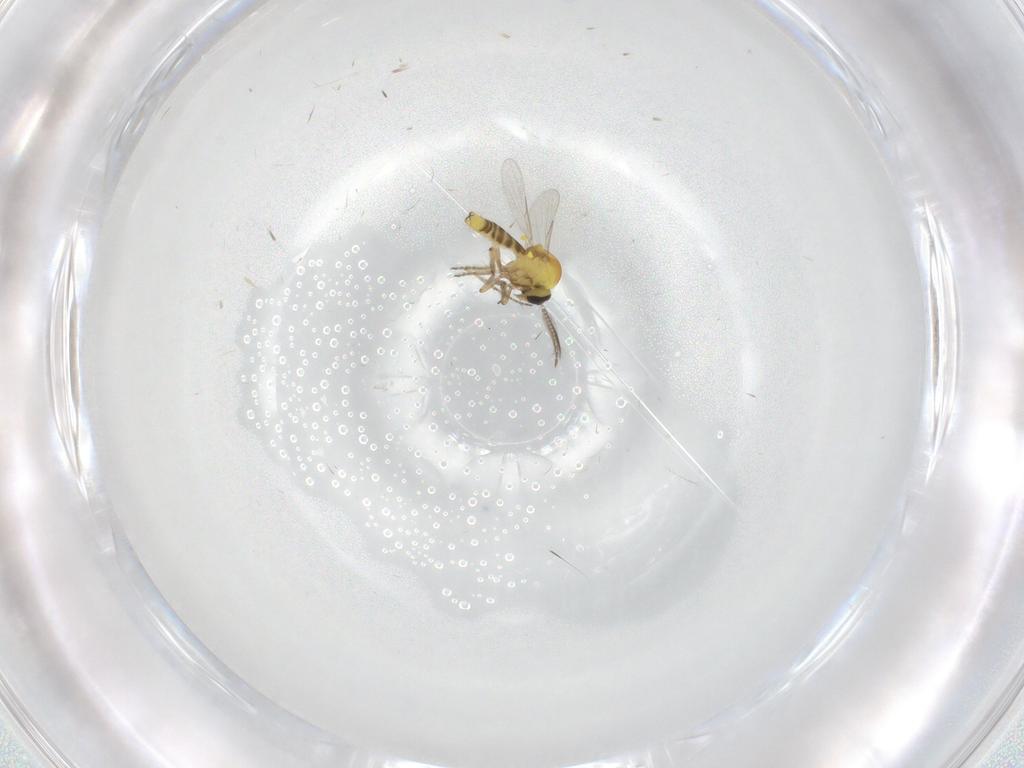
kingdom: Animalia
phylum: Arthropoda
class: Insecta
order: Diptera
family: Ceratopogonidae
